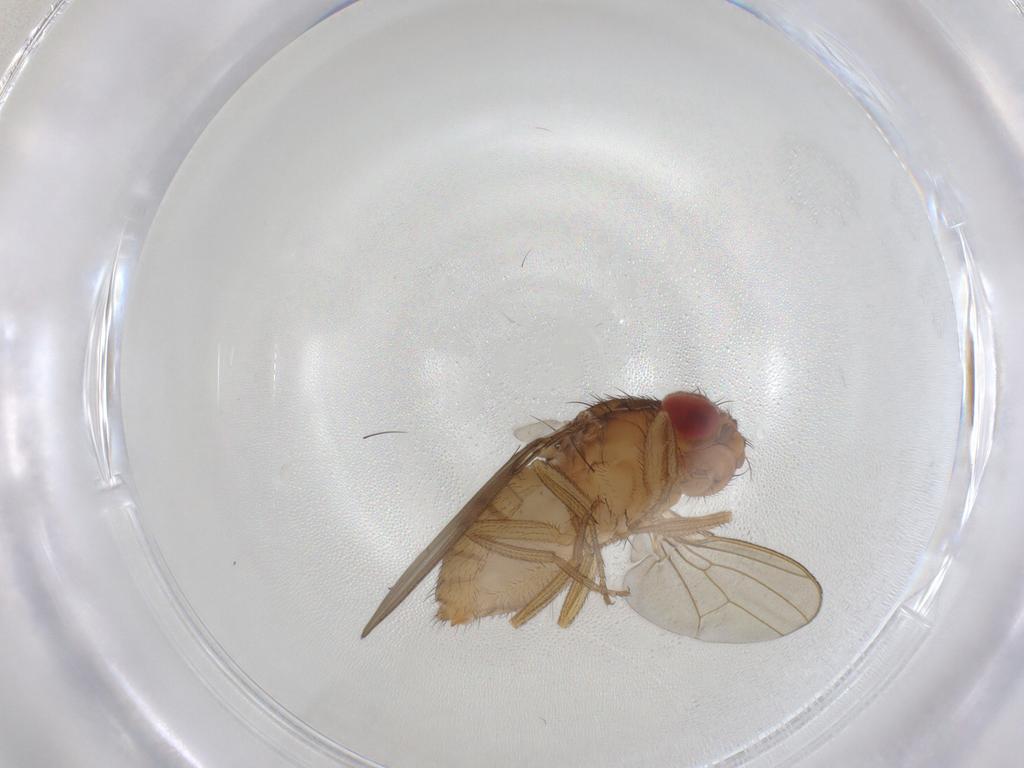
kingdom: Animalia
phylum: Arthropoda
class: Insecta
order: Diptera
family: Drosophilidae
